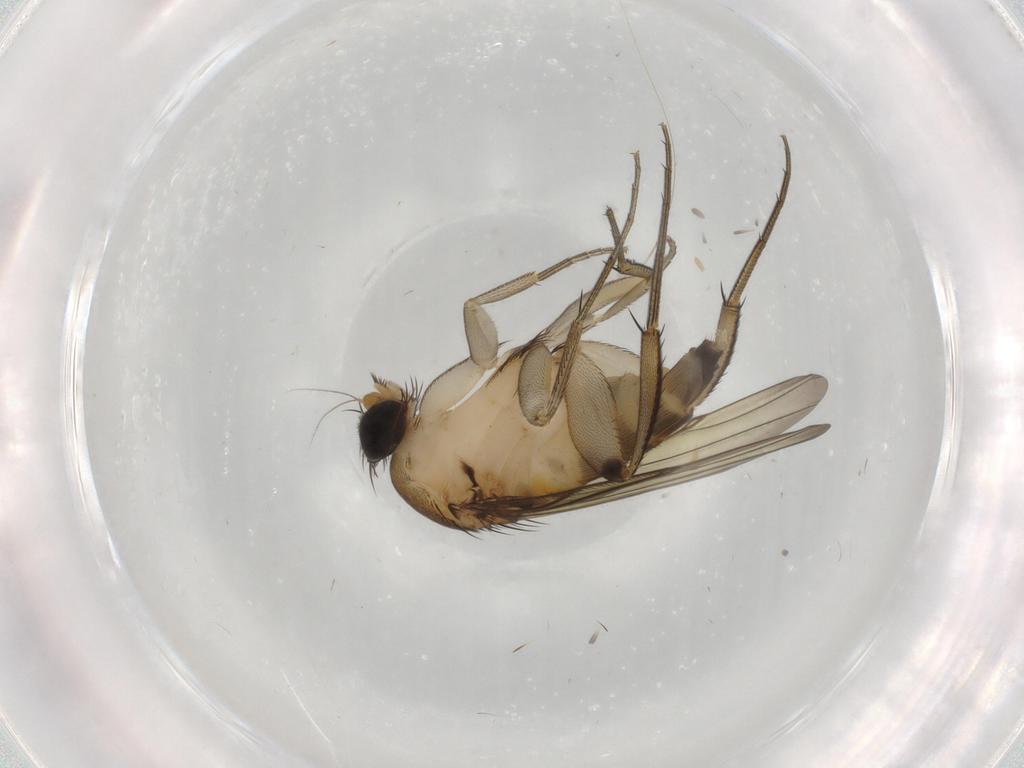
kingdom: Animalia
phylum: Arthropoda
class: Insecta
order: Diptera
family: Phoridae
